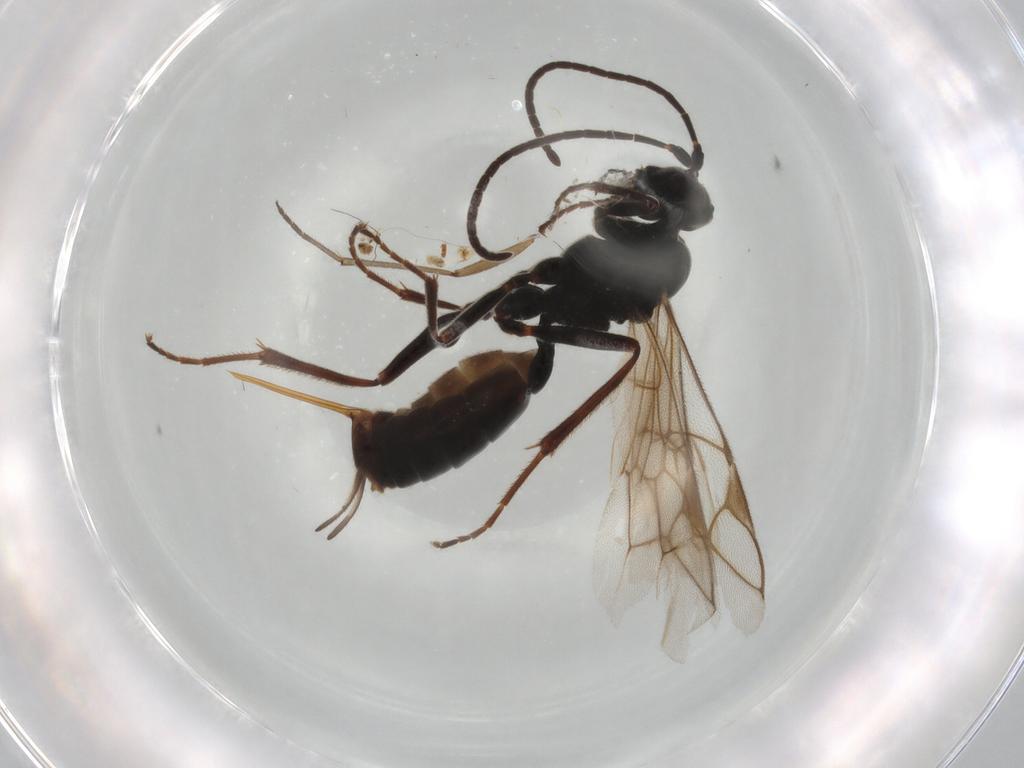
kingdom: Animalia
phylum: Arthropoda
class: Insecta
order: Hymenoptera
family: Ichneumonidae
